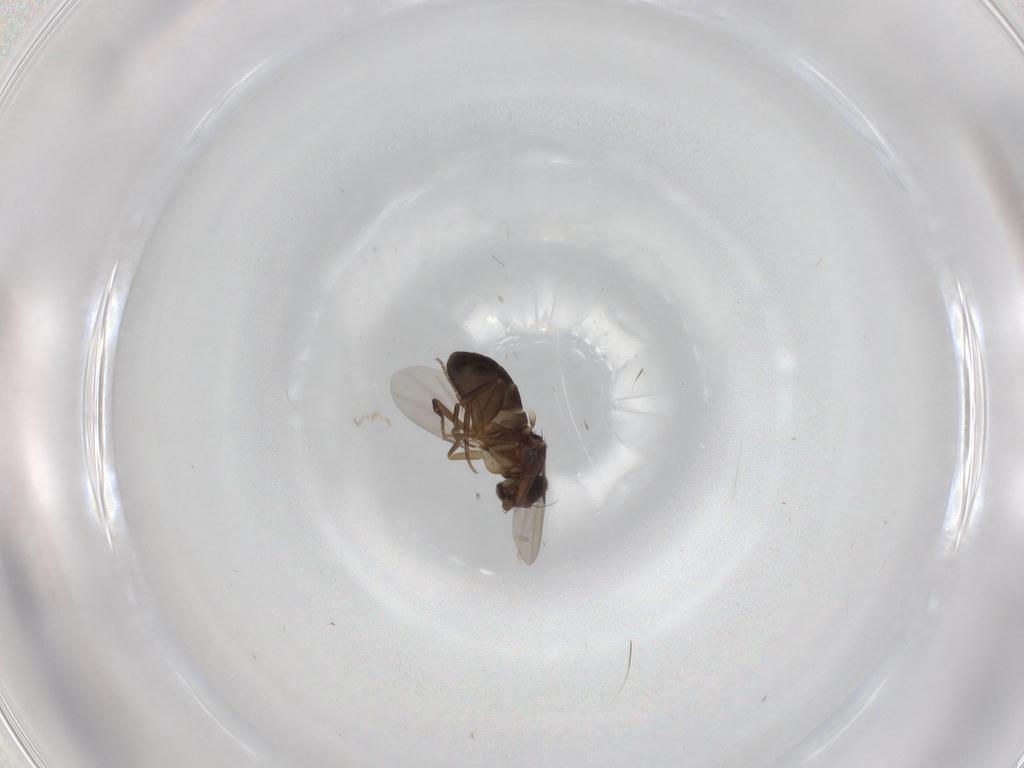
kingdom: Animalia
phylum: Arthropoda
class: Insecta
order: Diptera
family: Phoridae
